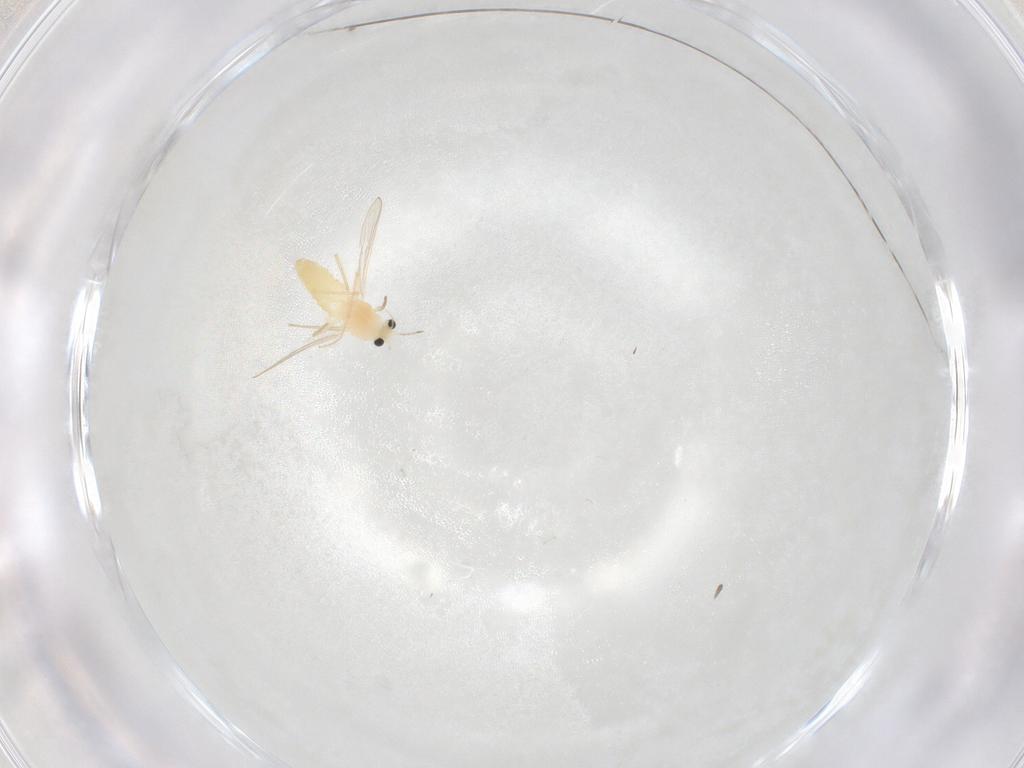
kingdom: Animalia
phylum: Arthropoda
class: Insecta
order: Diptera
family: Chironomidae
